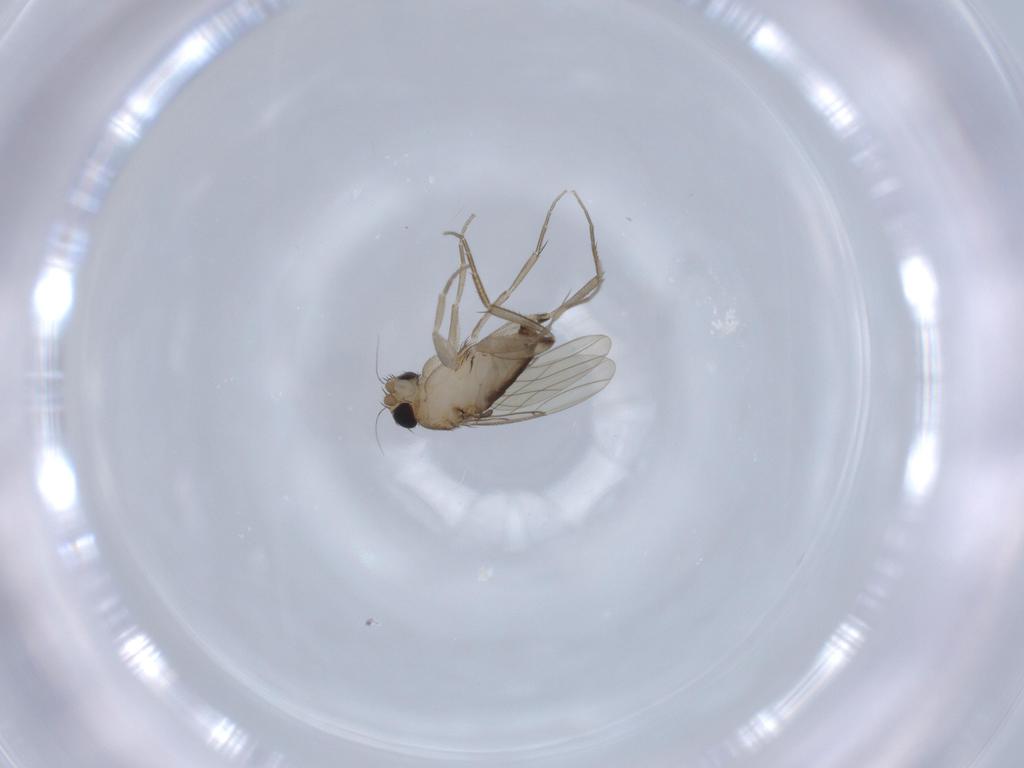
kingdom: Animalia
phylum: Arthropoda
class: Insecta
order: Diptera
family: Phoridae
